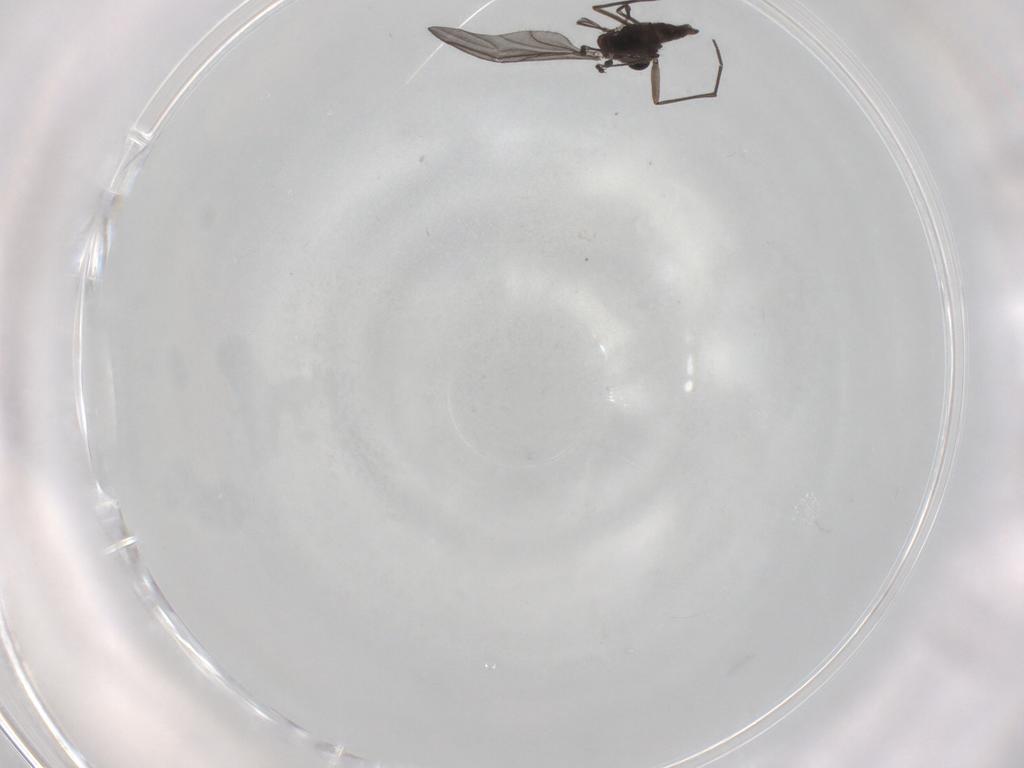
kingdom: Animalia
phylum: Arthropoda
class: Insecta
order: Diptera
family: Sciaridae
